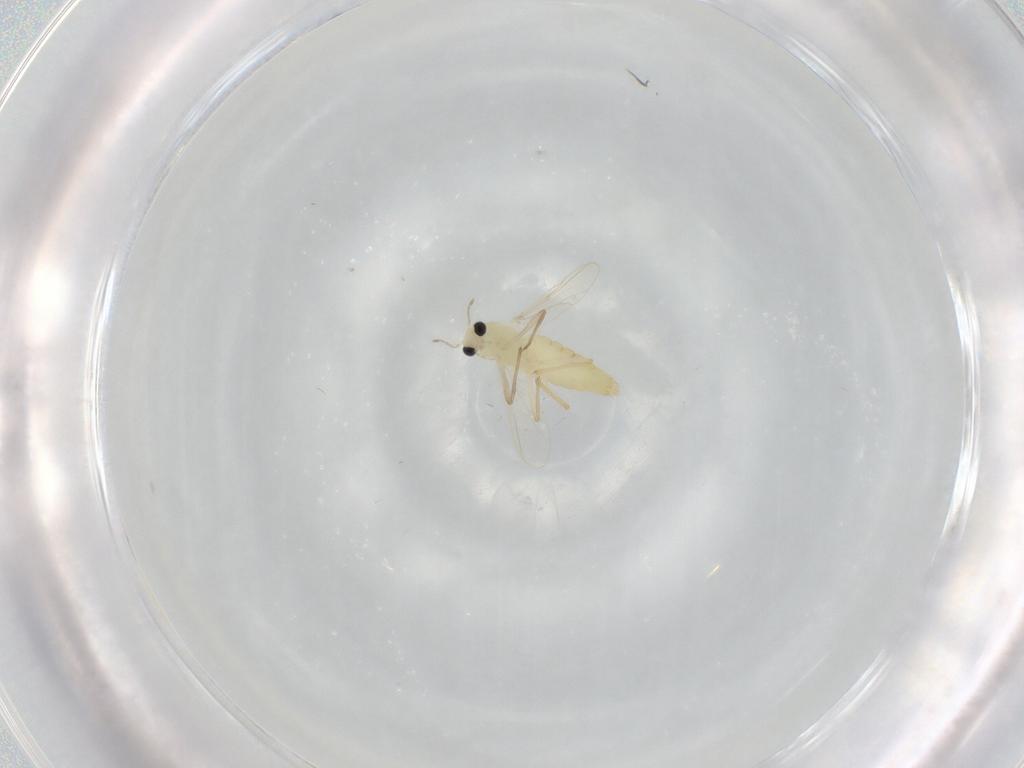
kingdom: Animalia
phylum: Arthropoda
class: Insecta
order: Diptera
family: Chironomidae
